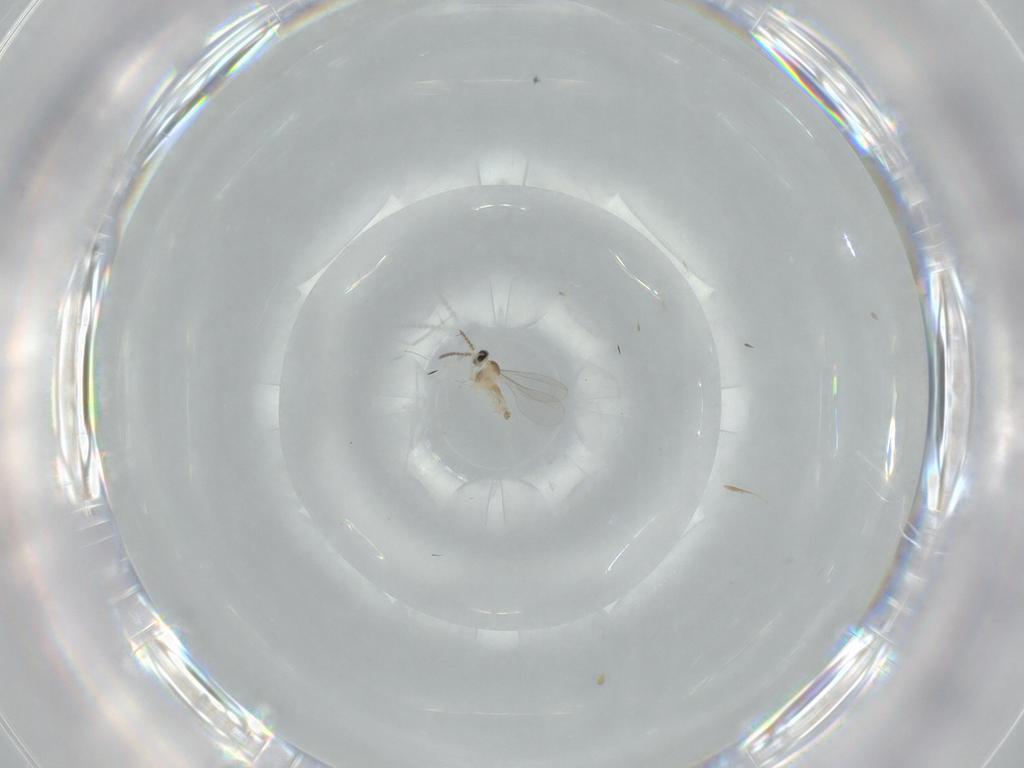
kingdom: Animalia
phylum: Arthropoda
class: Insecta
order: Diptera
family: Cecidomyiidae
